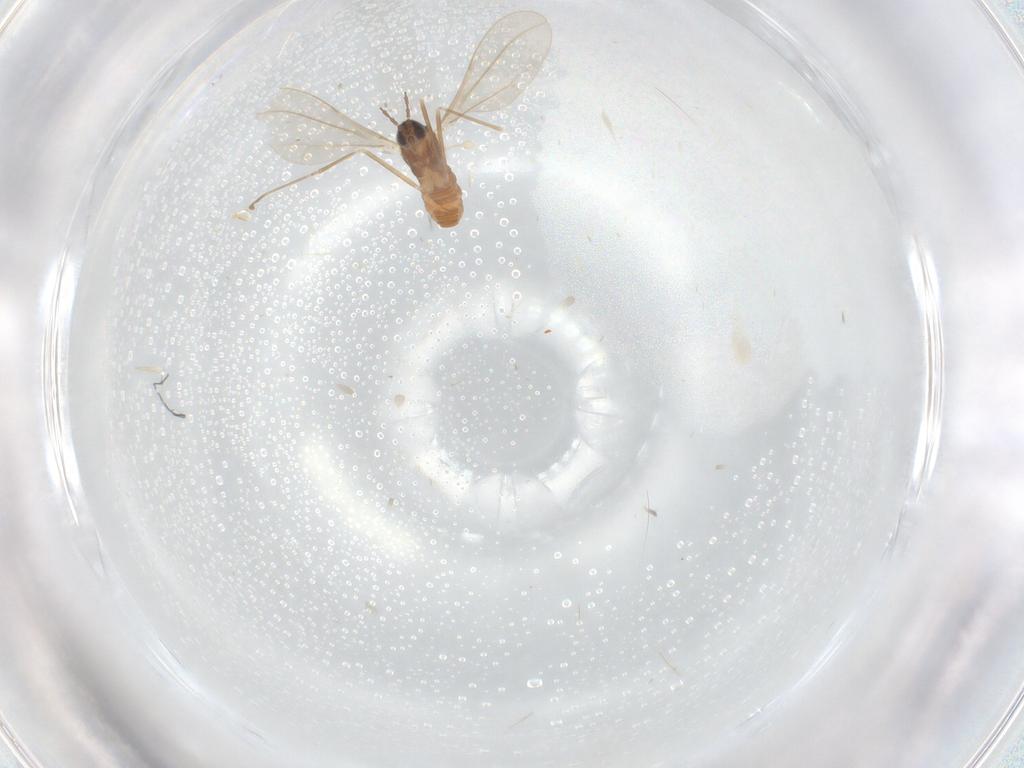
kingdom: Animalia
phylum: Arthropoda
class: Insecta
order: Diptera
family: Cecidomyiidae
